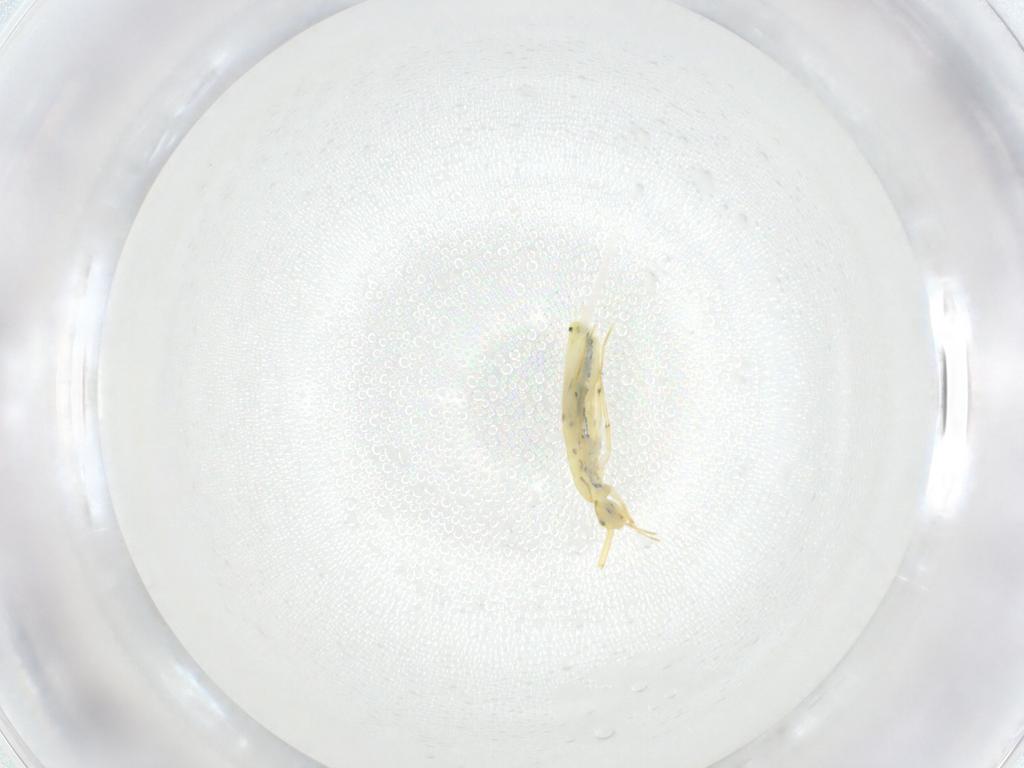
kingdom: Animalia
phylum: Arthropoda
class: Collembola
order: Entomobryomorpha
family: Entomobryidae
